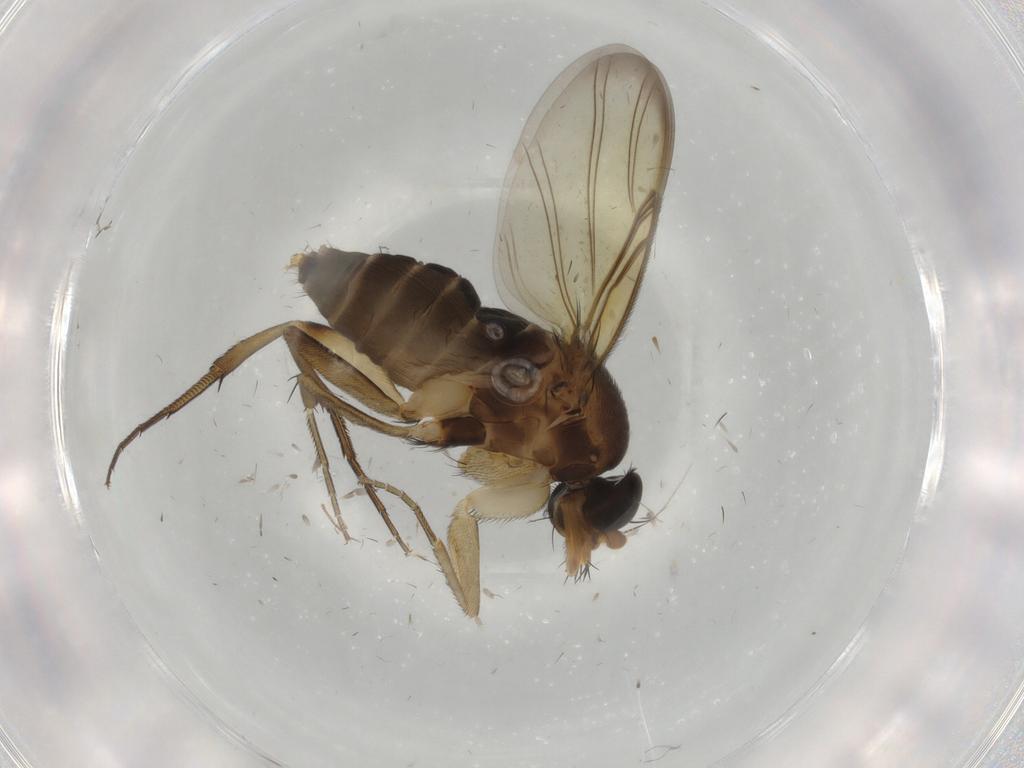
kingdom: Animalia
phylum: Arthropoda
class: Insecta
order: Diptera
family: Phoridae
